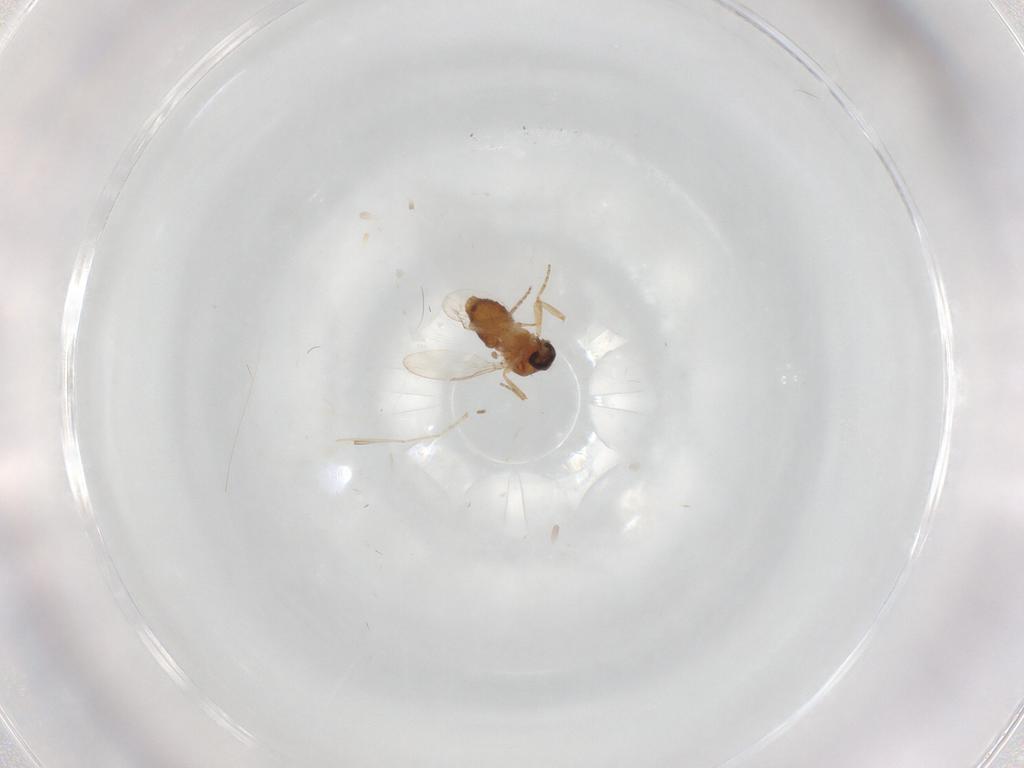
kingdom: Animalia
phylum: Arthropoda
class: Insecta
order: Diptera
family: Ceratopogonidae
